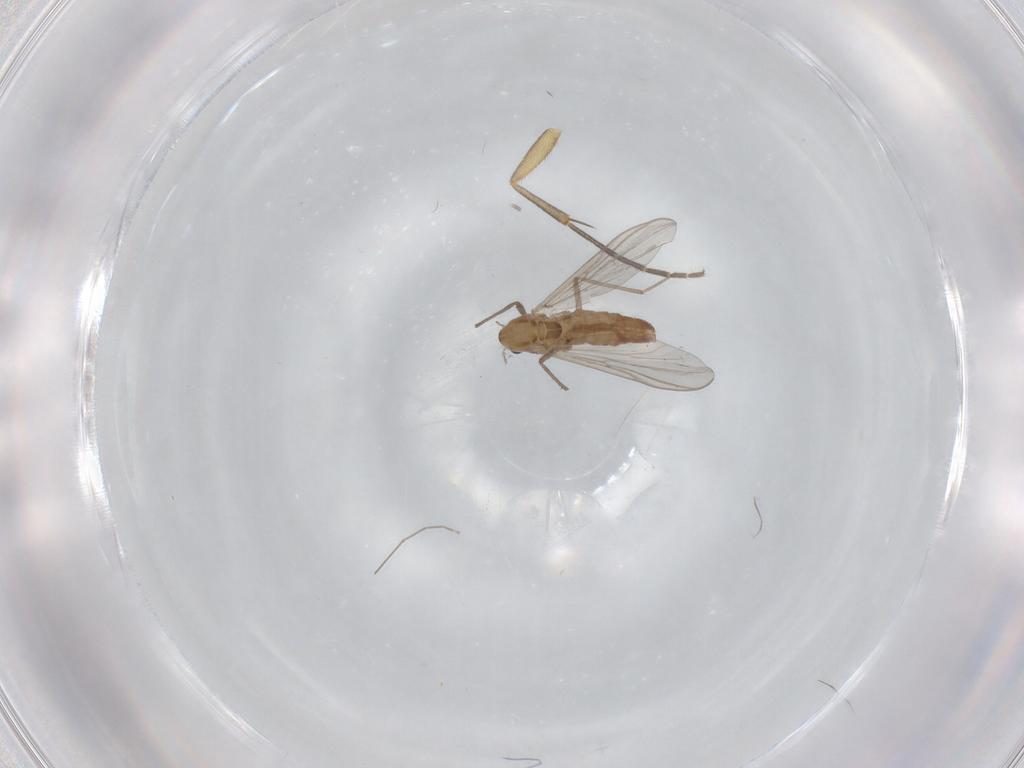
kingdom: Animalia
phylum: Arthropoda
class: Insecta
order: Diptera
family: Chironomidae
